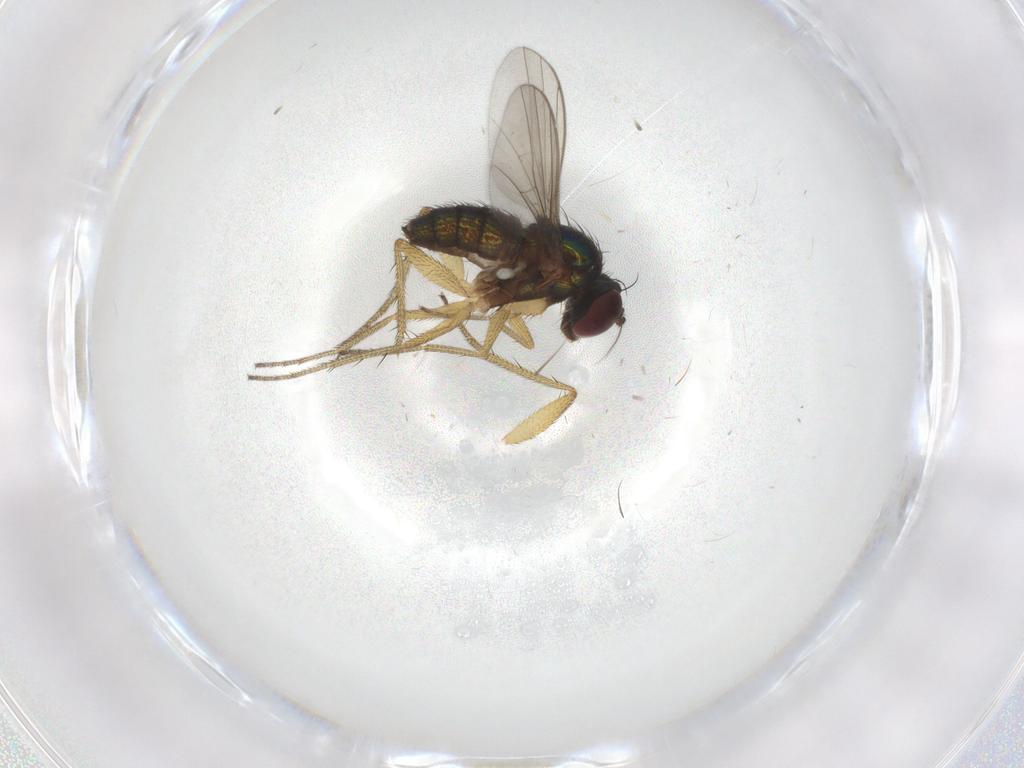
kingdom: Animalia
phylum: Arthropoda
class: Insecta
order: Diptera
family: Dolichopodidae
